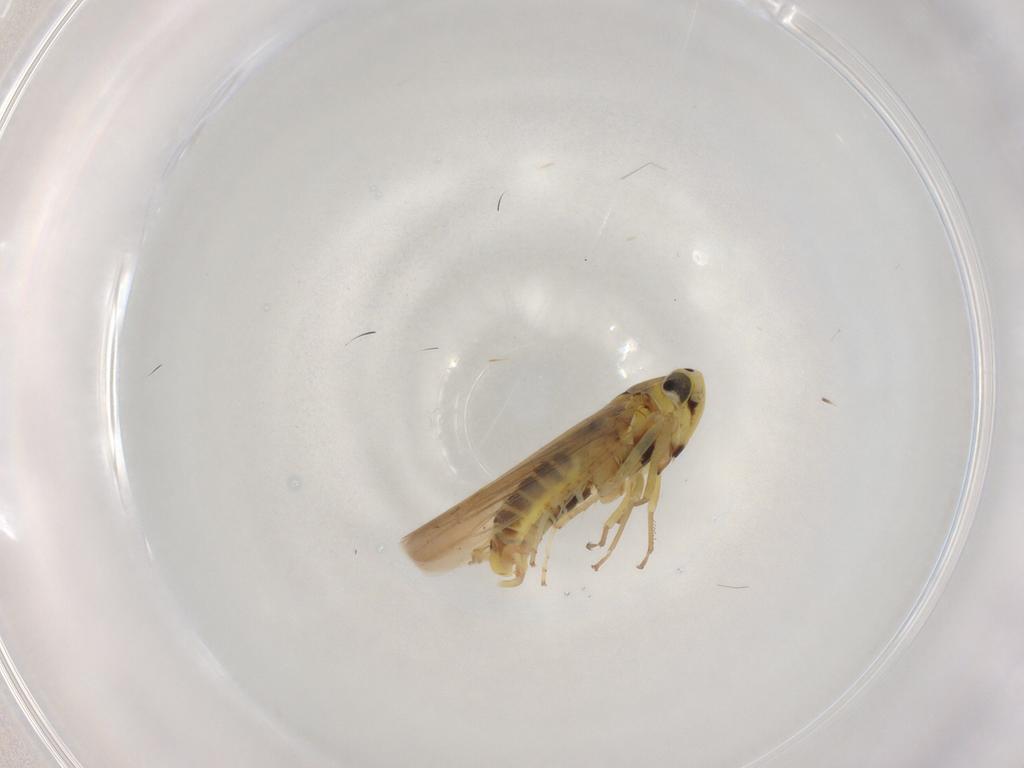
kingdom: Animalia
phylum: Arthropoda
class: Insecta
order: Hemiptera
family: Cicadellidae
